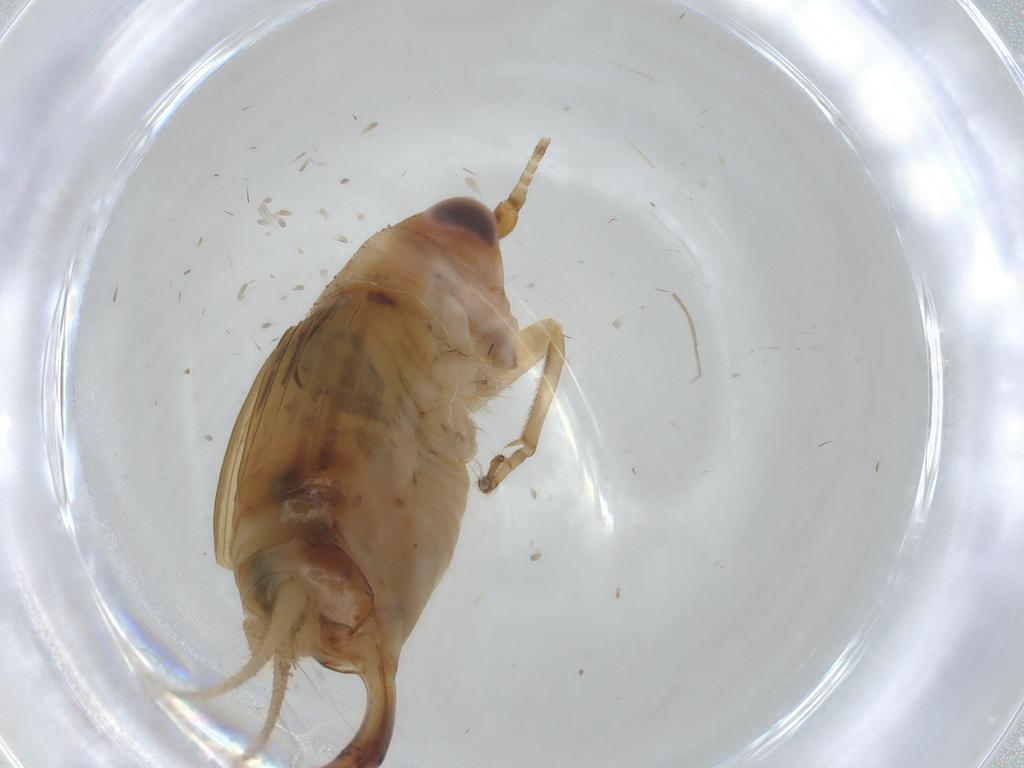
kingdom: Animalia
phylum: Arthropoda
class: Insecta
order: Orthoptera
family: Trigonidiidae
